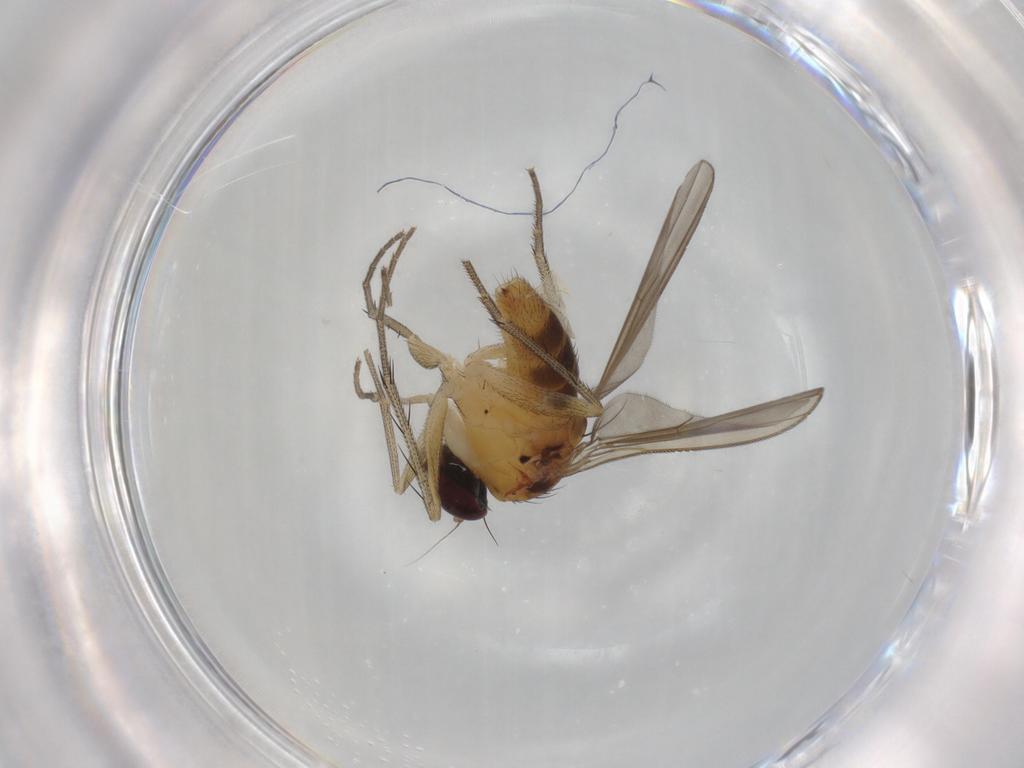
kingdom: Animalia
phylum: Arthropoda
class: Insecta
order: Diptera
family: Dolichopodidae
